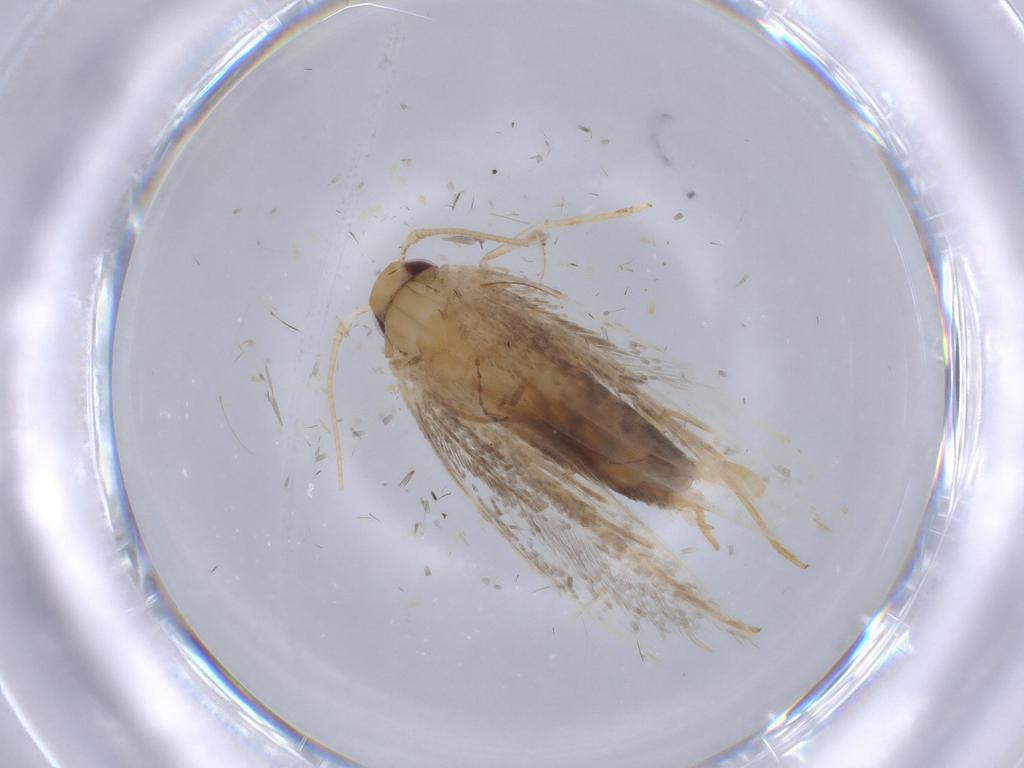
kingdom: Animalia
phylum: Arthropoda
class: Insecta
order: Lepidoptera
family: Cosmopterigidae
